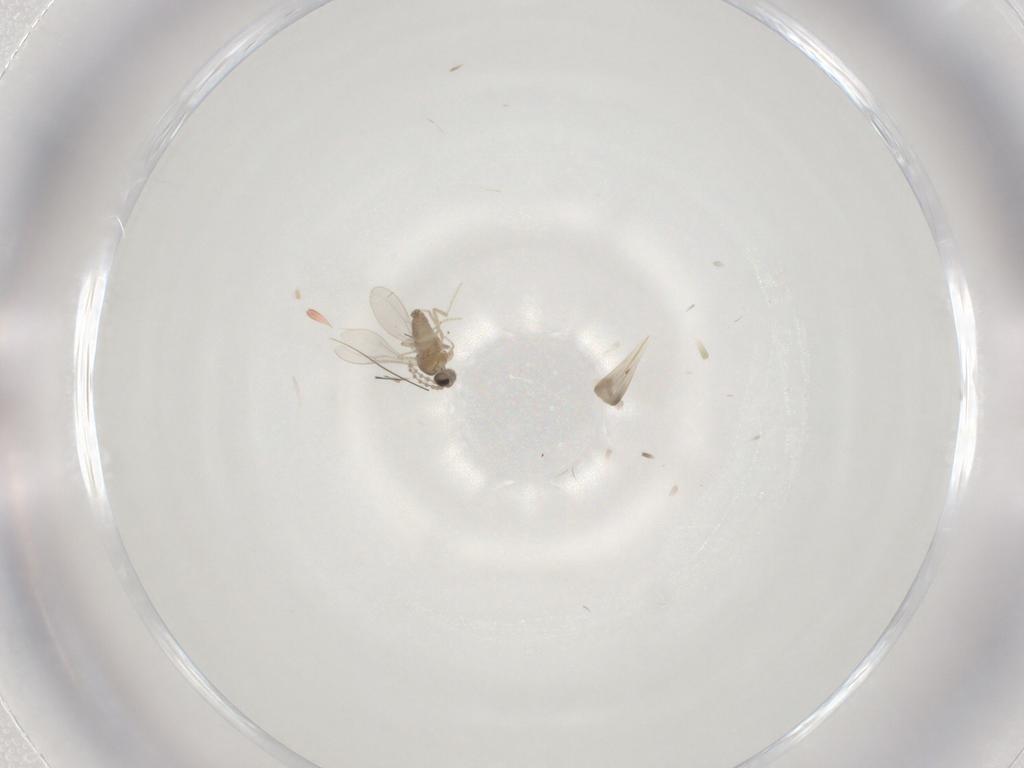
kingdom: Animalia
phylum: Arthropoda
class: Insecta
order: Diptera
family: Cecidomyiidae
